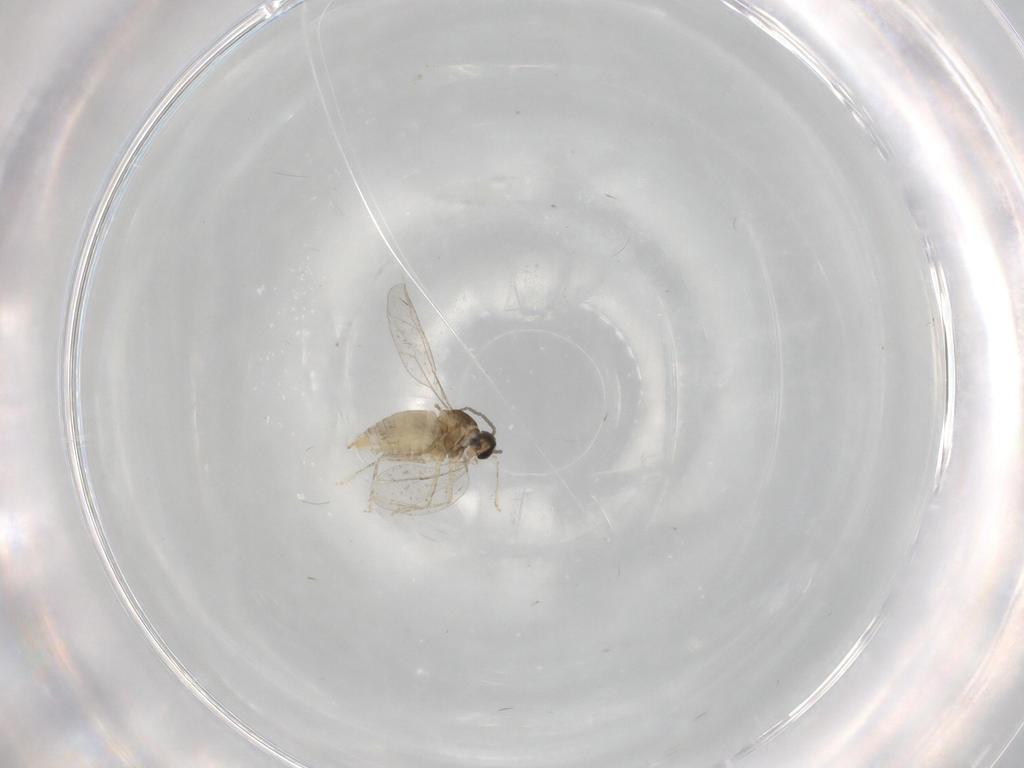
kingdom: Animalia
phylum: Arthropoda
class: Insecta
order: Diptera
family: Cecidomyiidae
